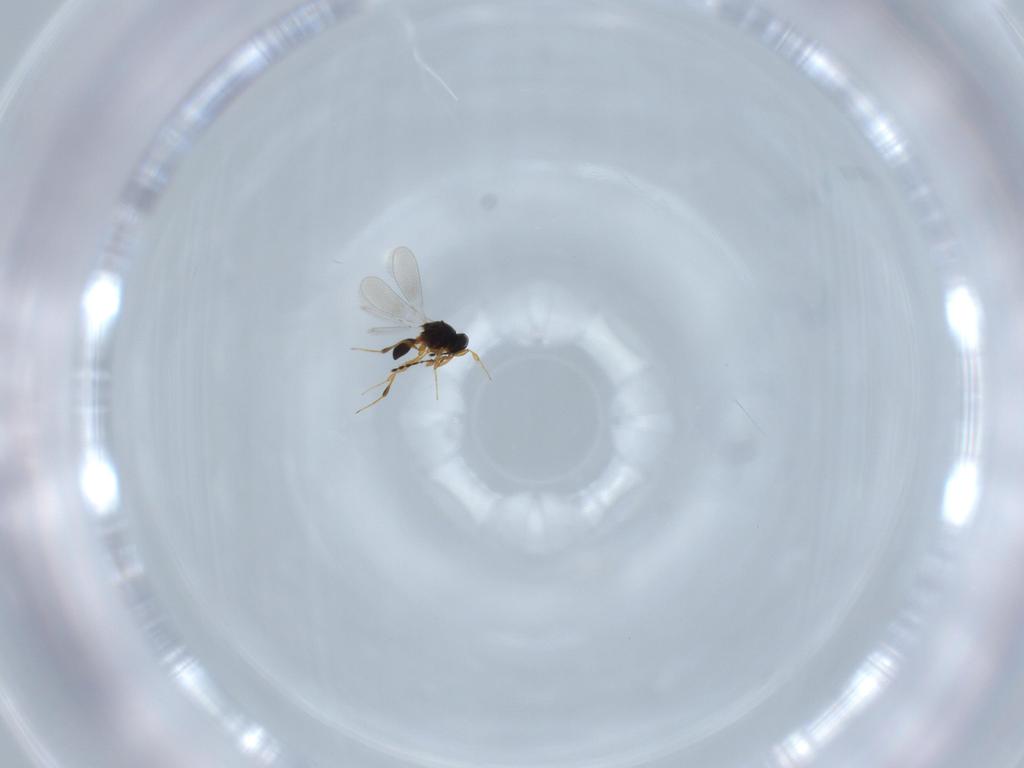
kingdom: Animalia
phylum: Arthropoda
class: Insecta
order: Hymenoptera
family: Platygastridae
